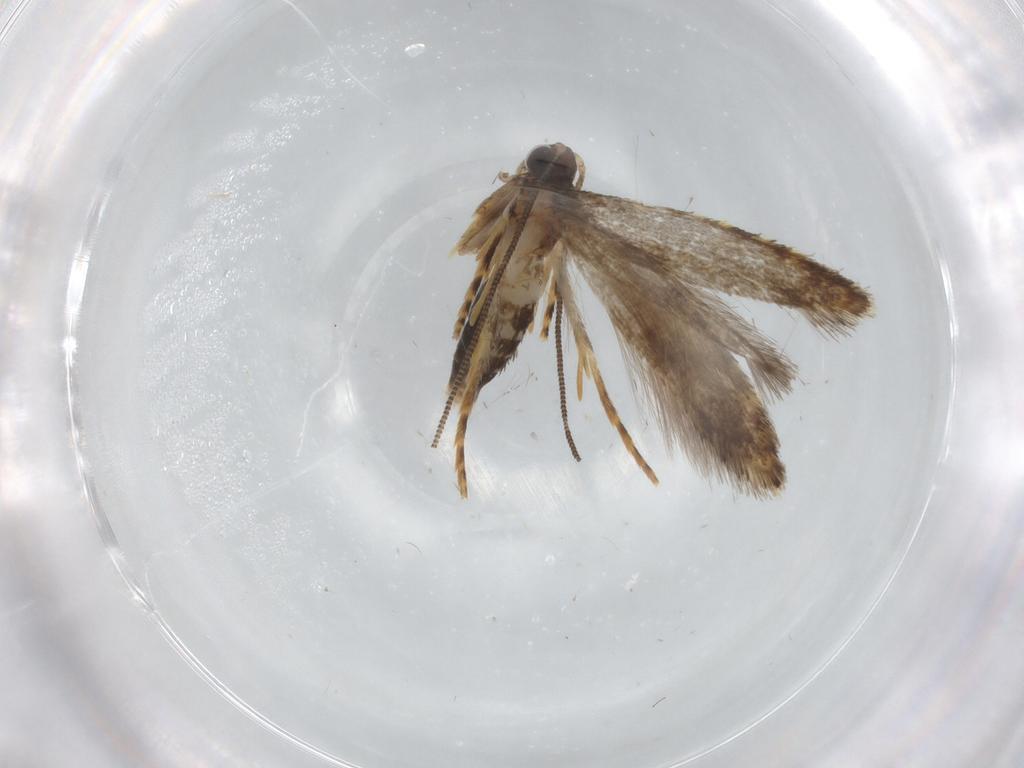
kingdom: Animalia
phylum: Arthropoda
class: Insecta
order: Lepidoptera
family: Tineidae
